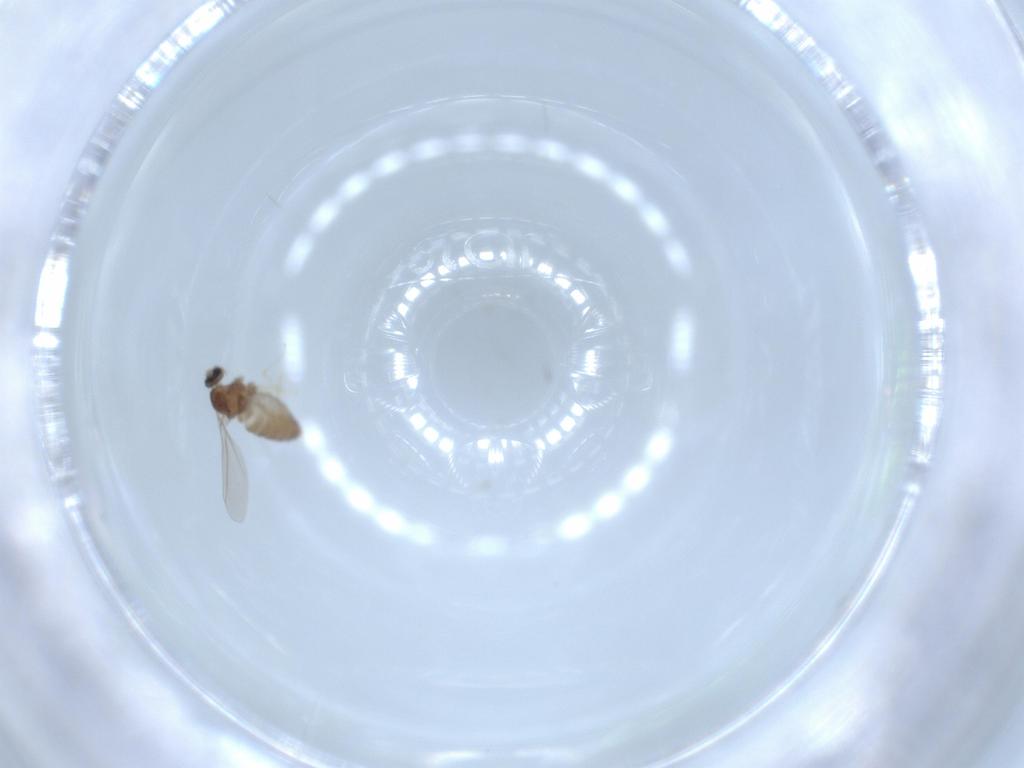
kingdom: Animalia
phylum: Arthropoda
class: Insecta
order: Diptera
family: Cecidomyiidae
